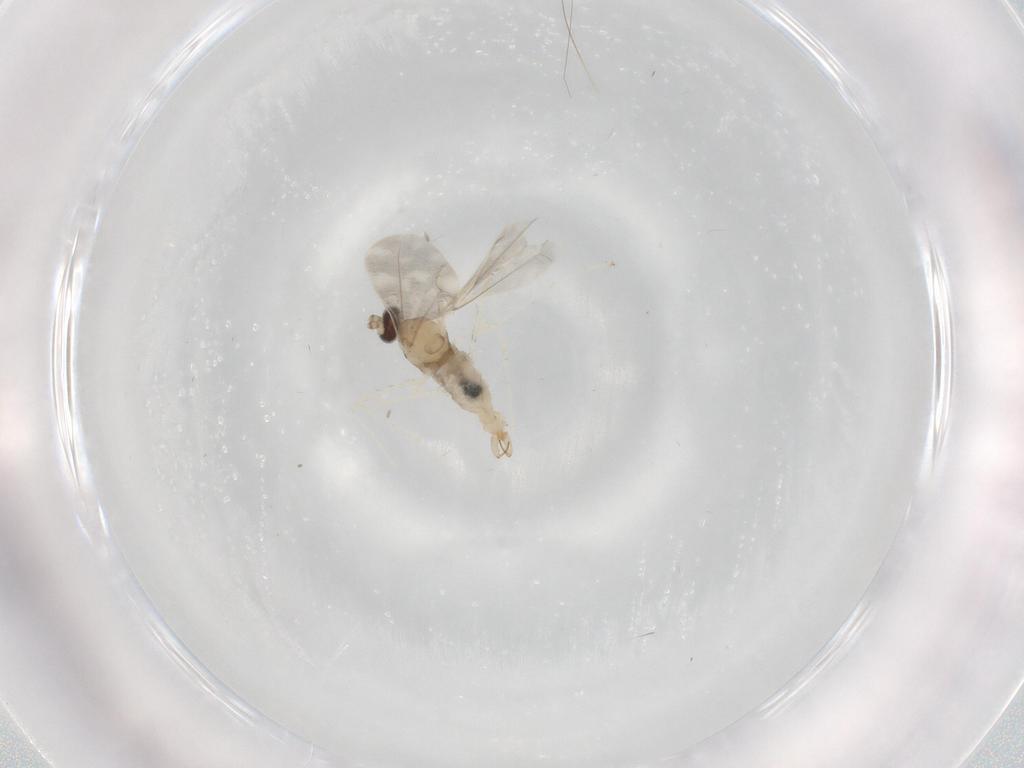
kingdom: Animalia
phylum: Arthropoda
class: Insecta
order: Diptera
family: Cecidomyiidae
